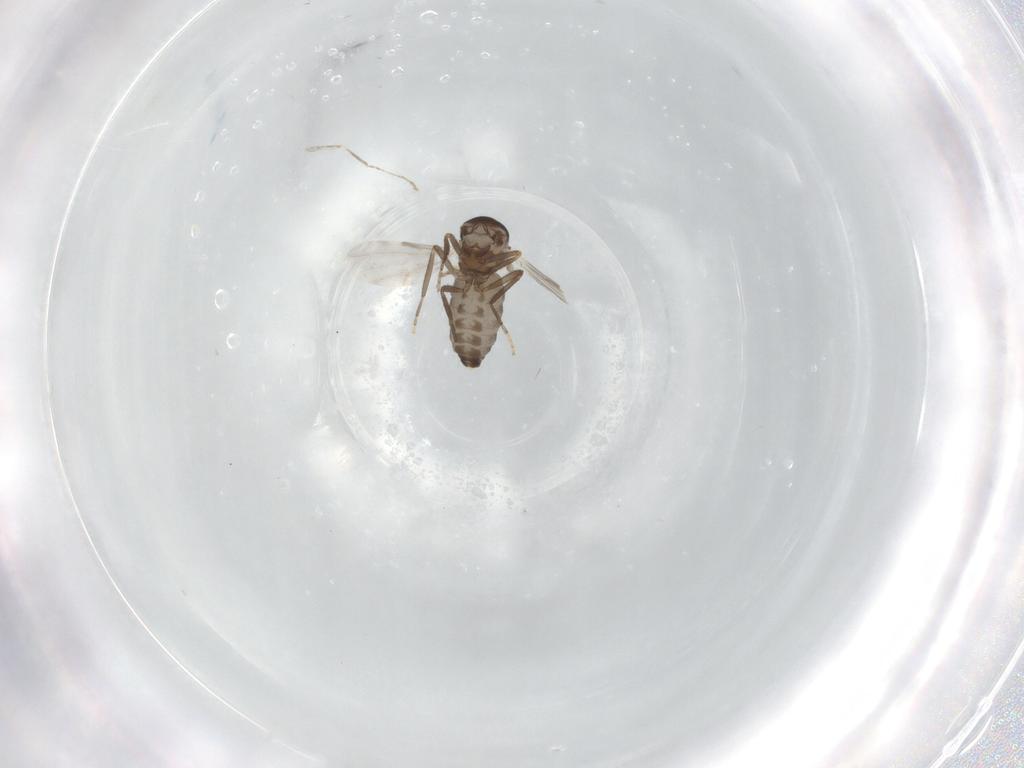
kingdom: Animalia
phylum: Arthropoda
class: Insecta
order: Diptera
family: Ceratopogonidae
